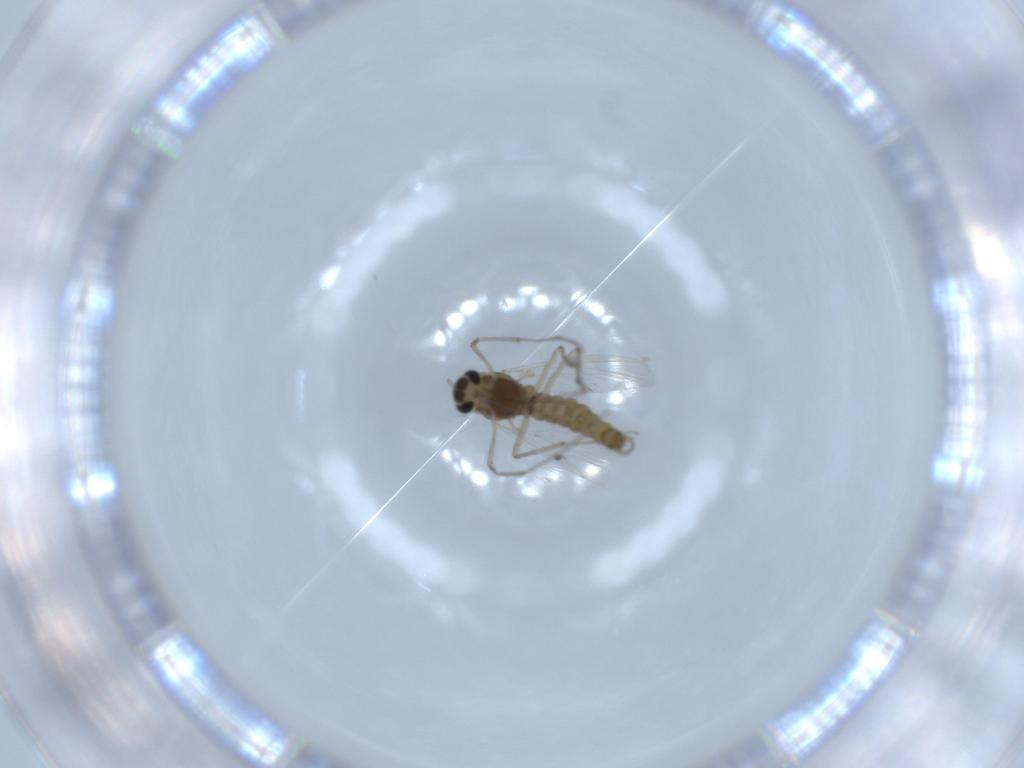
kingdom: Animalia
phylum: Arthropoda
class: Insecta
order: Diptera
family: Chironomidae
